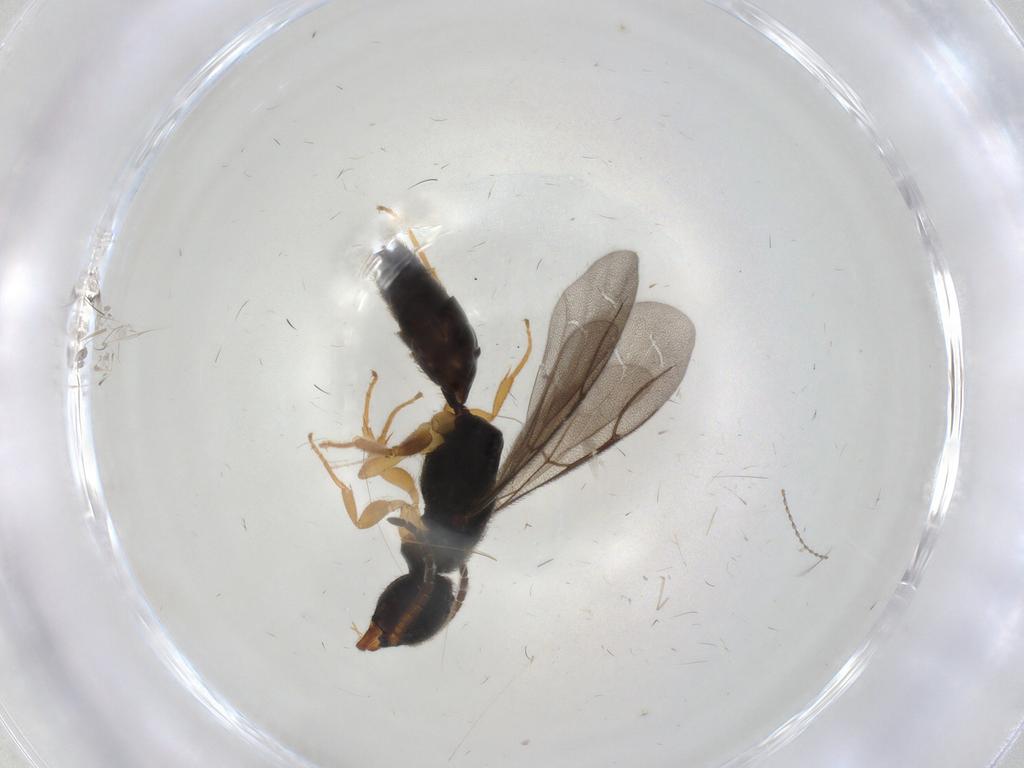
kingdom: Animalia
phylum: Arthropoda
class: Insecta
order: Hymenoptera
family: Bethylidae
